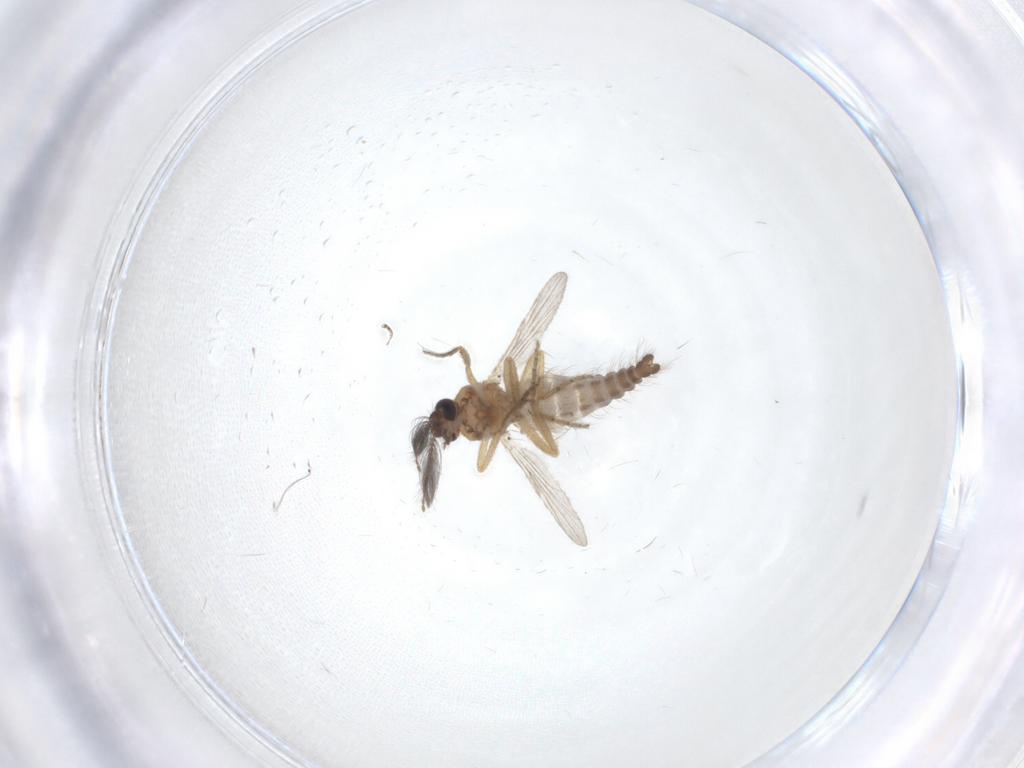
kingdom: Animalia
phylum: Arthropoda
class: Insecta
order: Diptera
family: Ceratopogonidae
